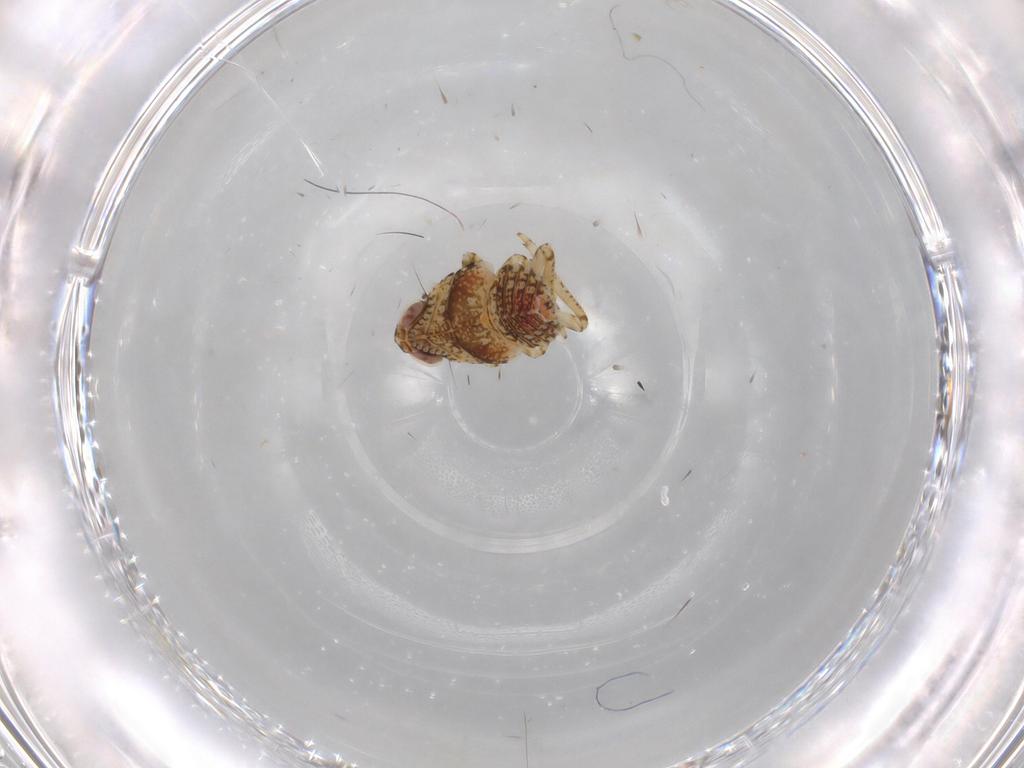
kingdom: Animalia
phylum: Arthropoda
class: Insecta
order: Hemiptera
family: Issidae
